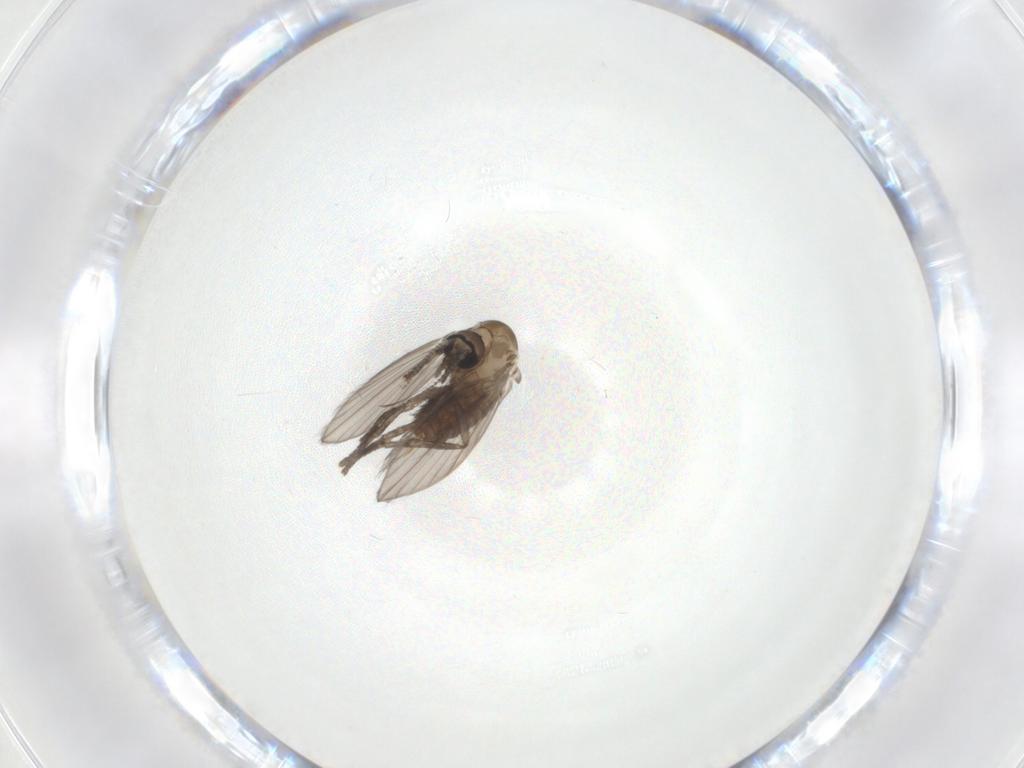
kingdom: Animalia
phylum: Arthropoda
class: Insecta
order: Diptera
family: Psychodidae
